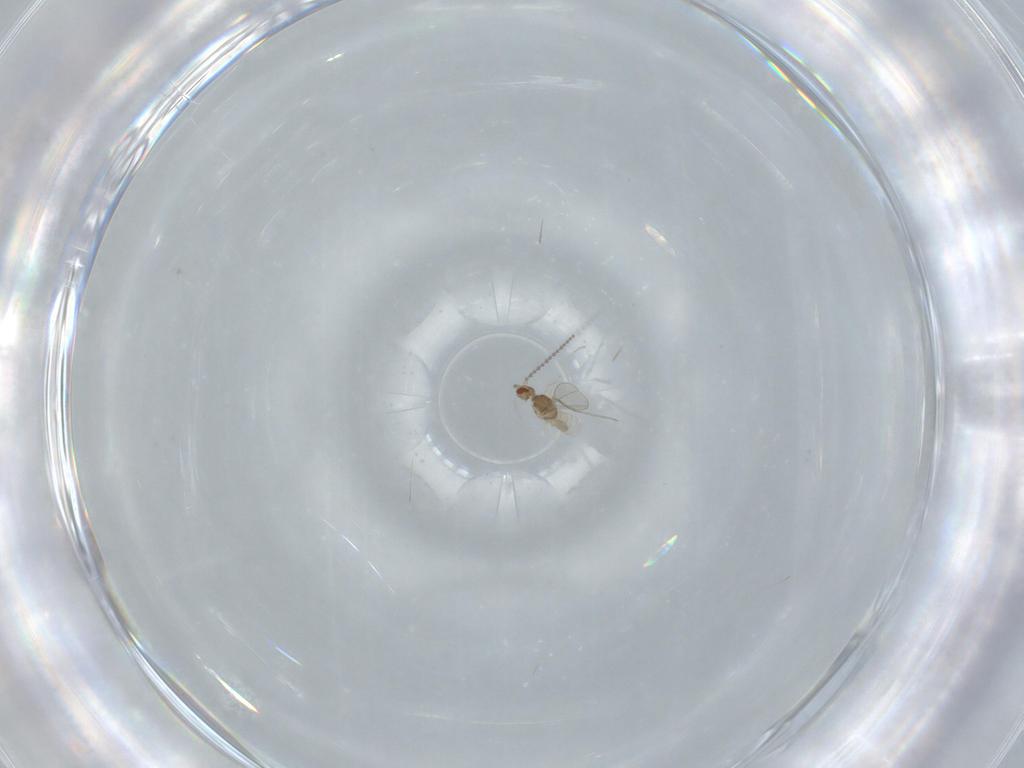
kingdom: Animalia
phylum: Arthropoda
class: Insecta
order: Diptera
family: Cecidomyiidae
